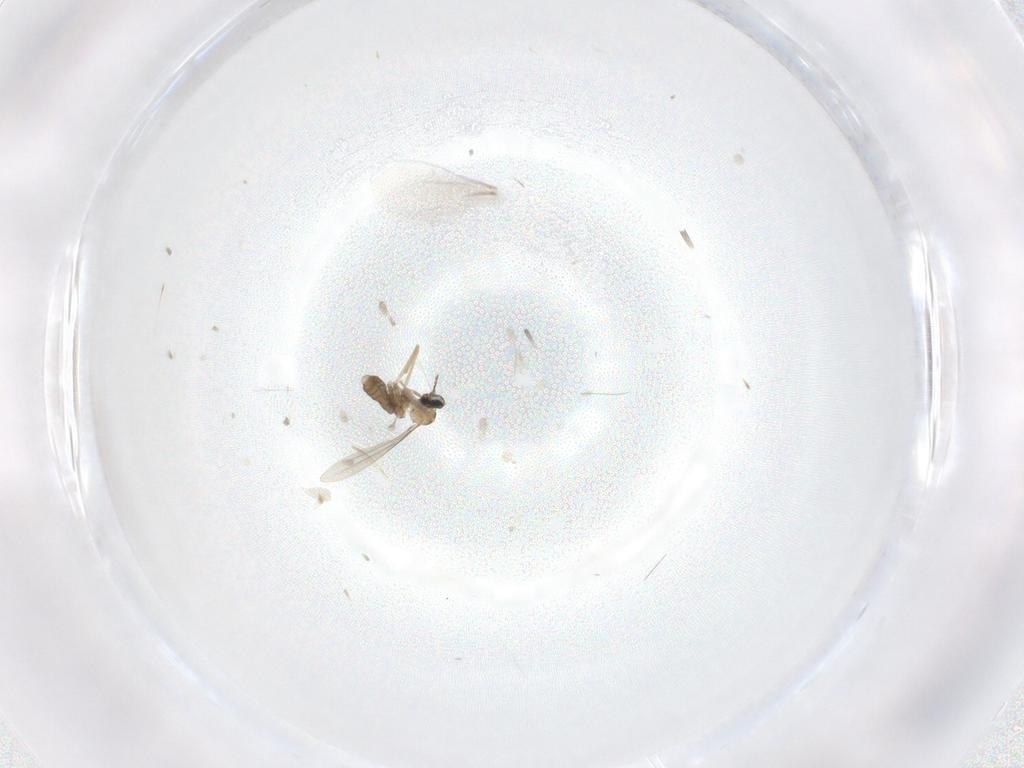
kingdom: Animalia
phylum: Arthropoda
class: Insecta
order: Diptera
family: Cecidomyiidae
